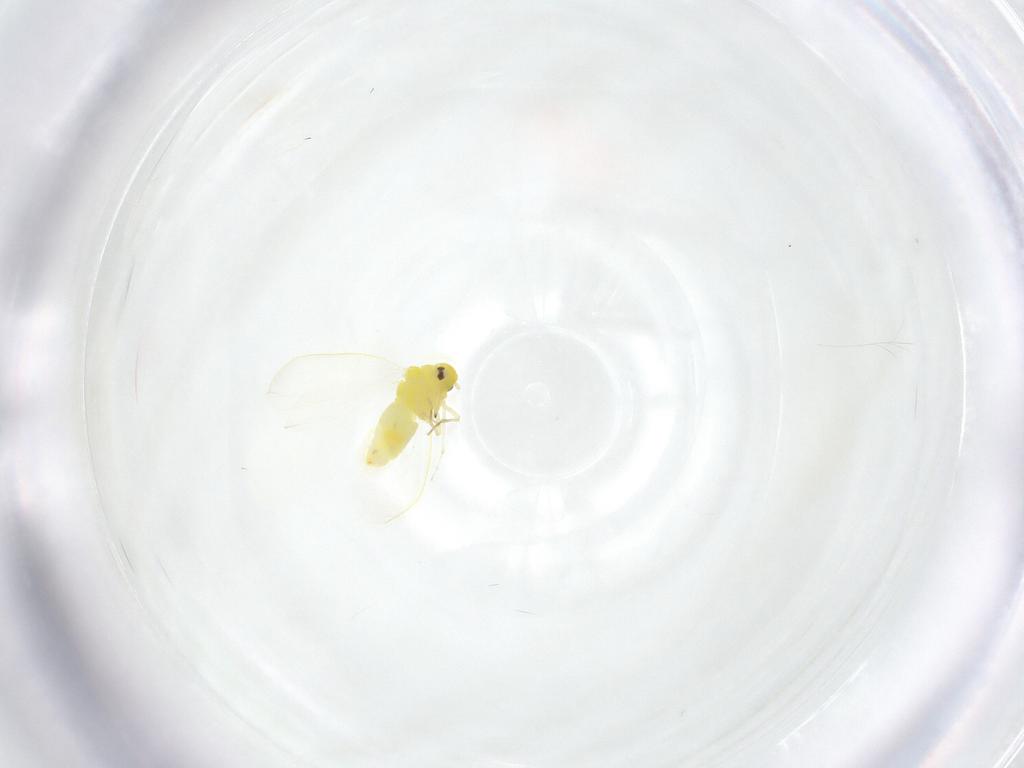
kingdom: Animalia
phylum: Arthropoda
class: Insecta
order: Hemiptera
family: Aleyrodidae
